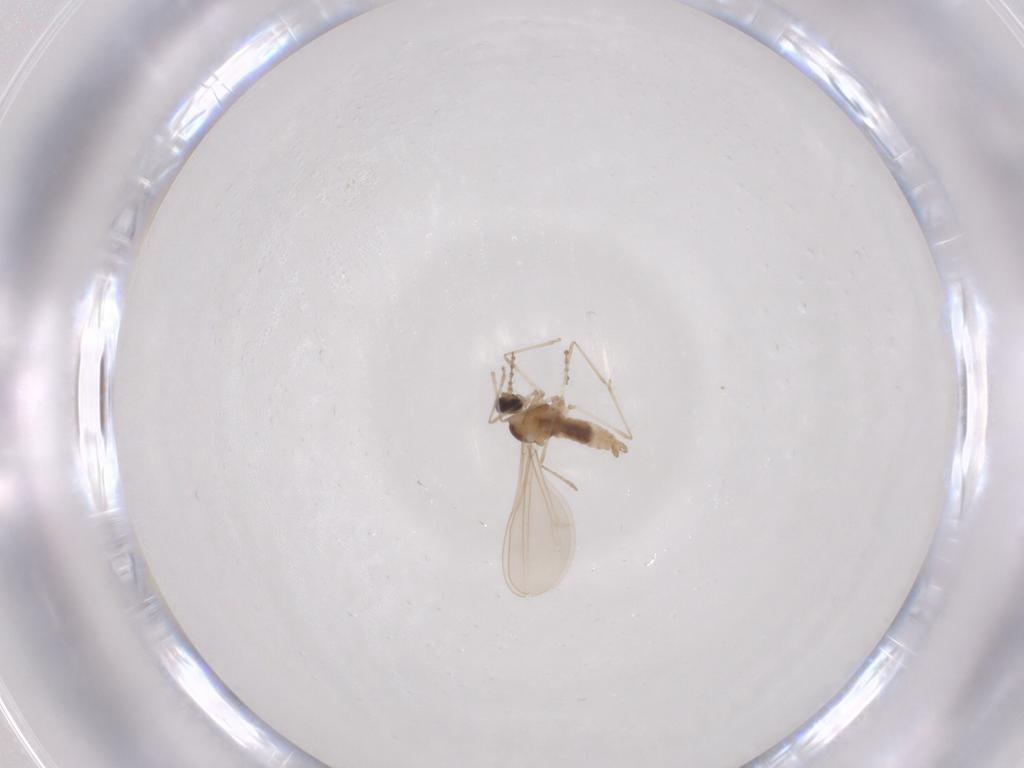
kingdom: Animalia
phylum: Arthropoda
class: Insecta
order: Diptera
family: Cecidomyiidae
